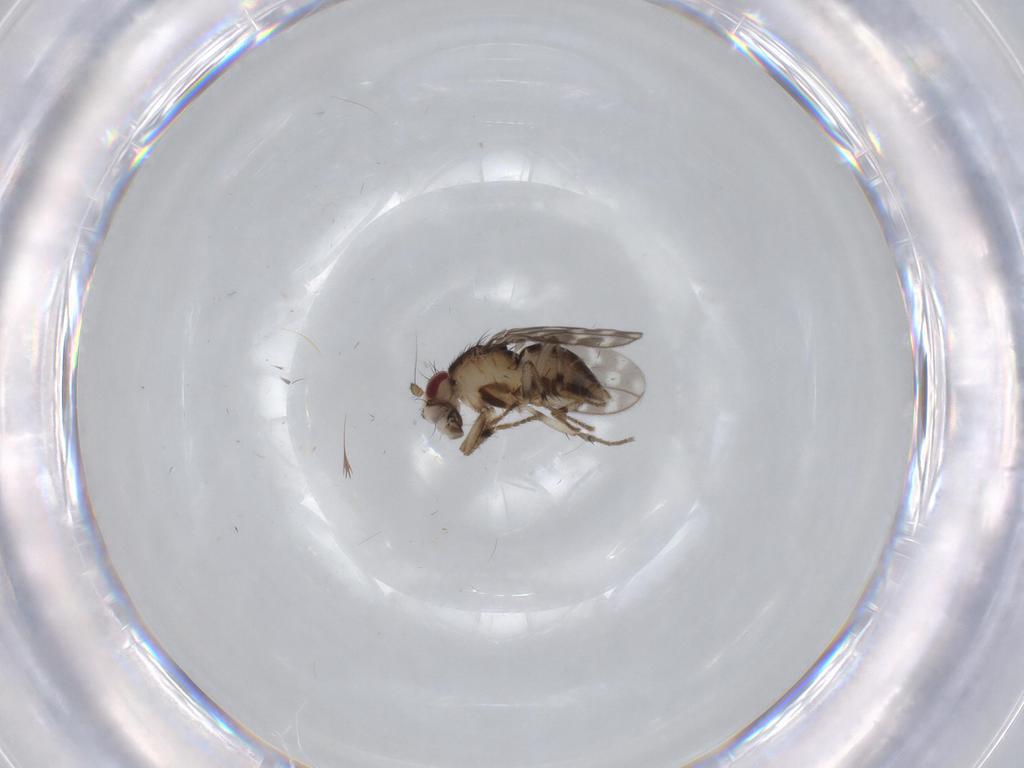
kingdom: Animalia
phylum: Arthropoda
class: Insecta
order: Diptera
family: Sphaeroceridae
